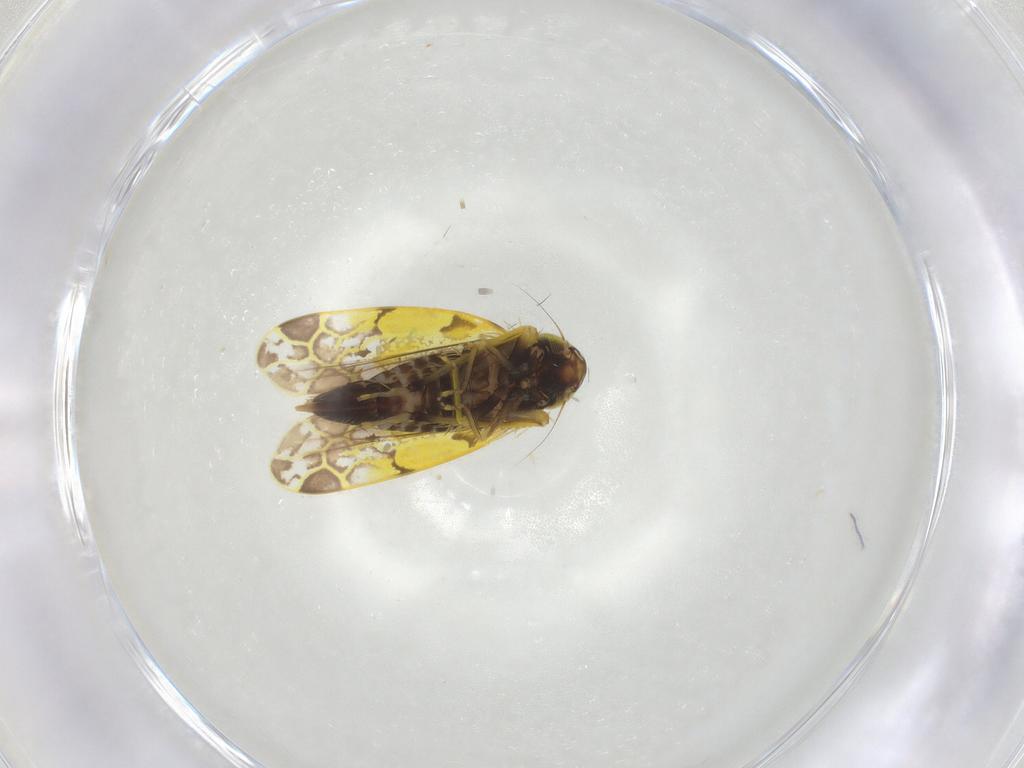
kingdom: Animalia
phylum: Arthropoda
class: Insecta
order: Hemiptera
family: Cicadellidae
